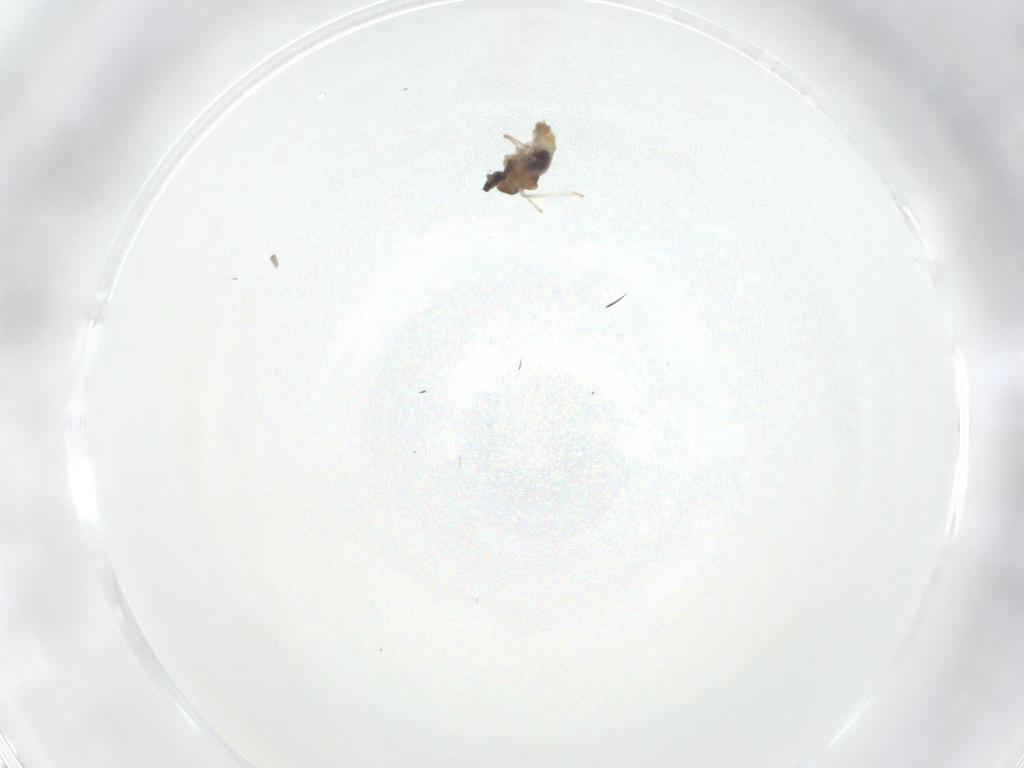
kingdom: Animalia
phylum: Arthropoda
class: Insecta
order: Diptera
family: Cecidomyiidae
